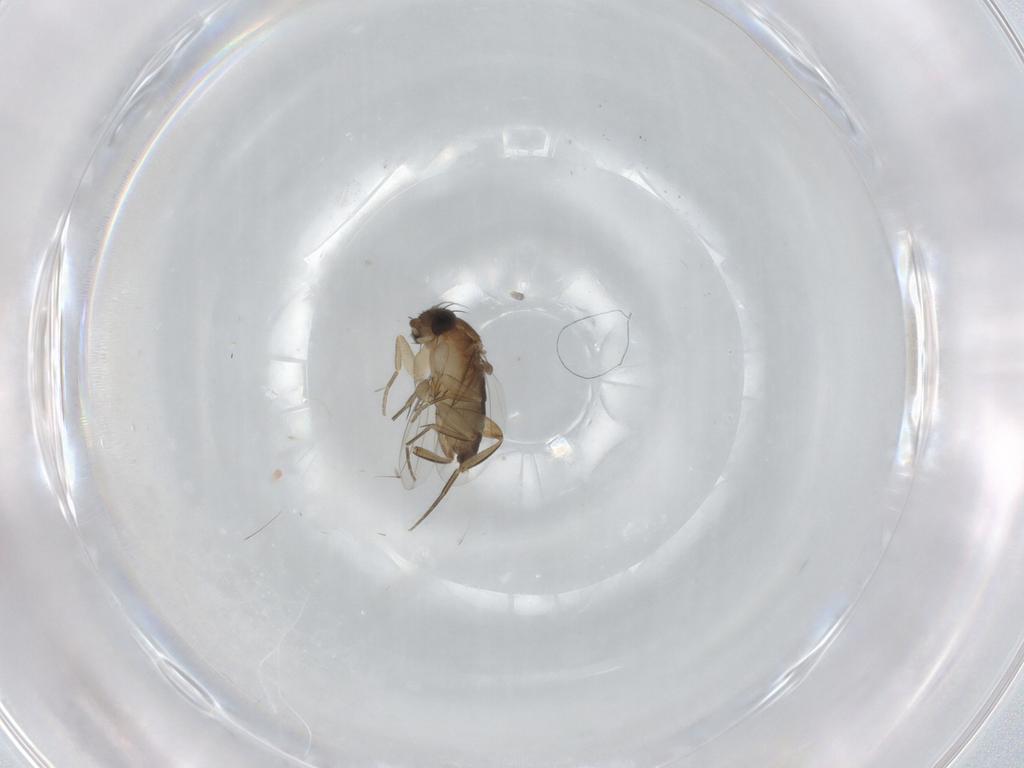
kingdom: Animalia
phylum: Arthropoda
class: Insecta
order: Diptera
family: Phoridae
